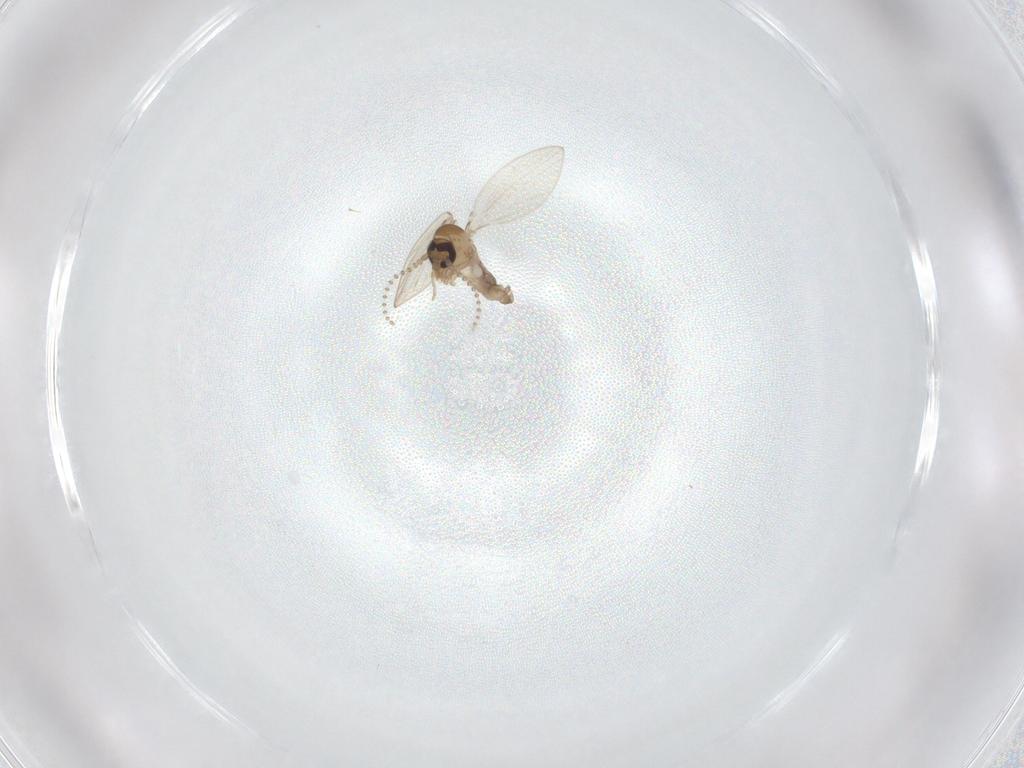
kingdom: Animalia
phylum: Arthropoda
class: Insecta
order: Diptera
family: Psychodidae
